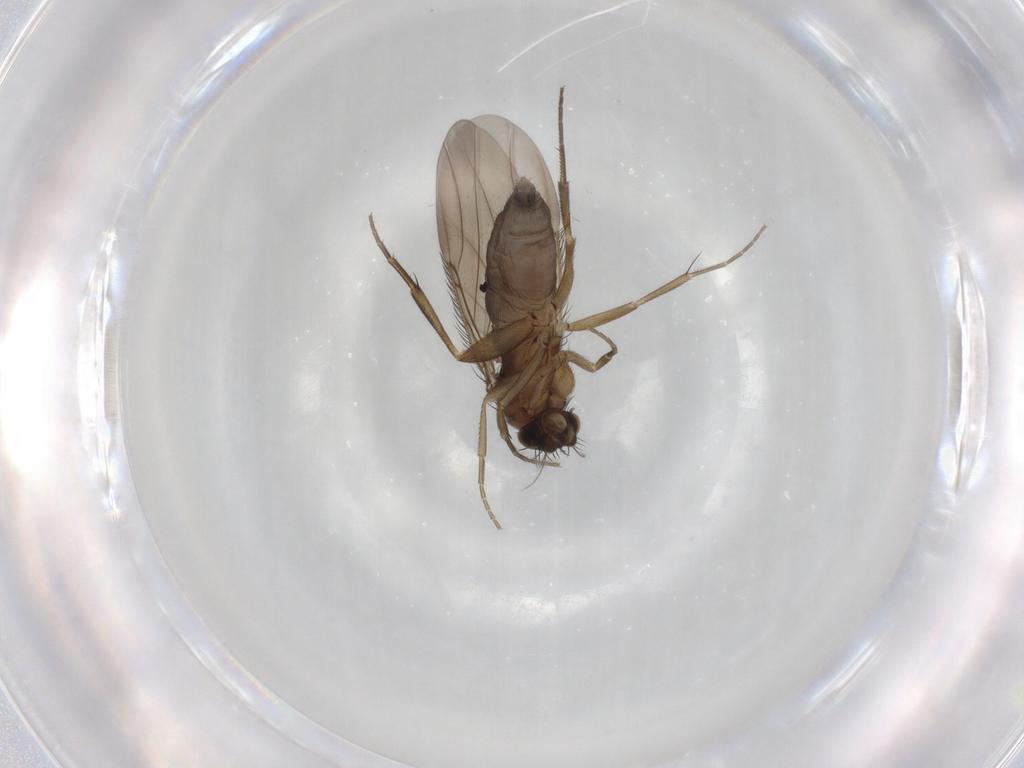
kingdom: Animalia
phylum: Arthropoda
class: Insecta
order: Diptera
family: Phoridae
